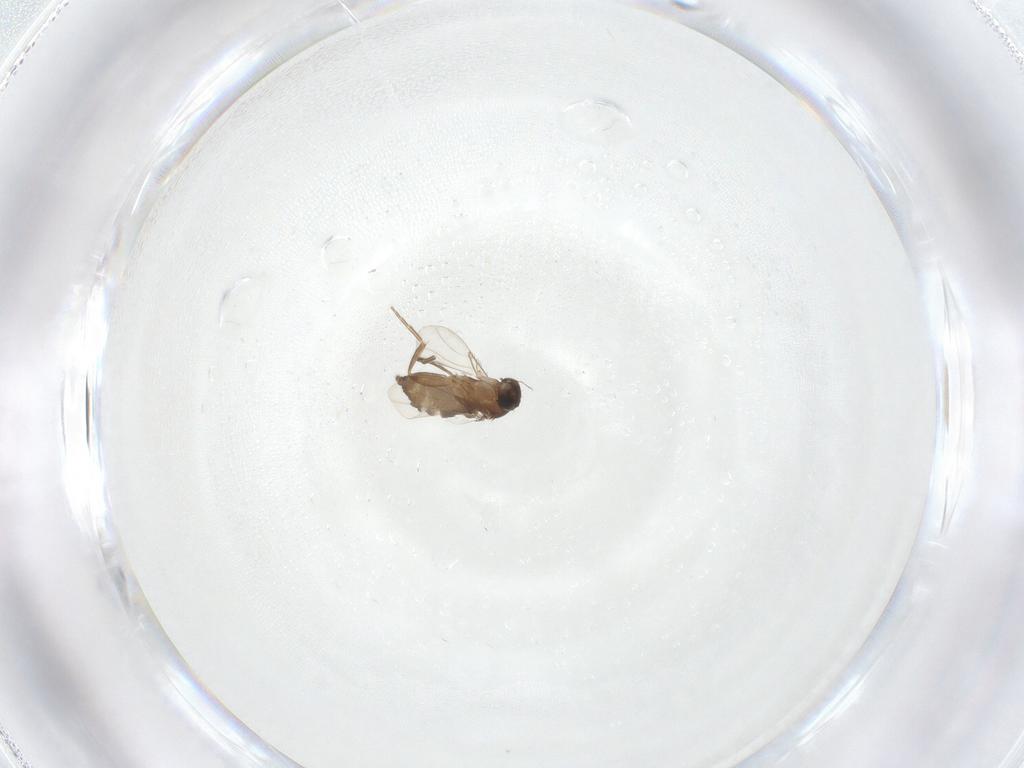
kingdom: Animalia
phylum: Arthropoda
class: Insecta
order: Diptera
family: Phoridae
